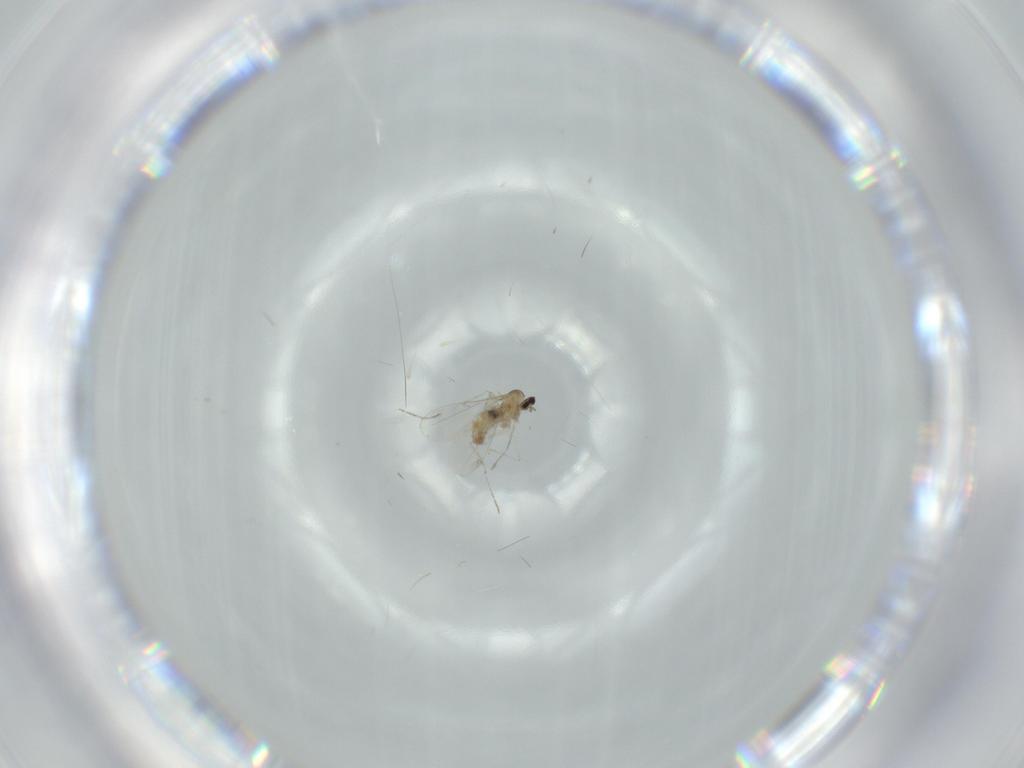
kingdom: Animalia
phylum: Arthropoda
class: Insecta
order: Diptera
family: Cecidomyiidae
